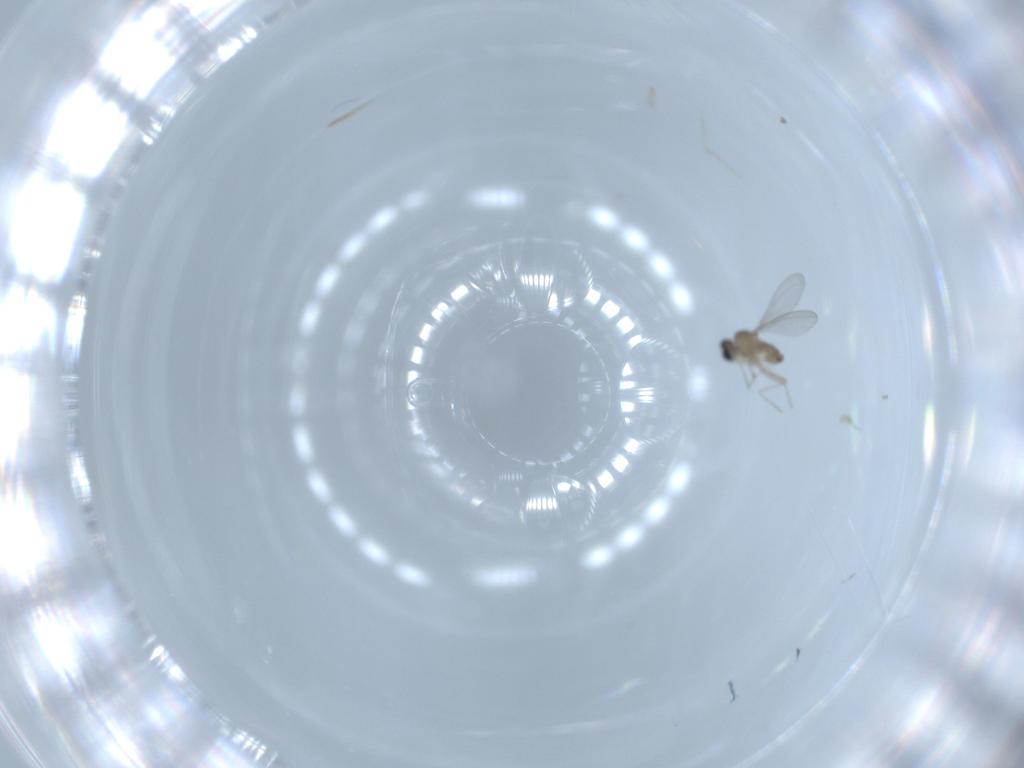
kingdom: Animalia
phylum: Arthropoda
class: Insecta
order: Diptera
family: Cecidomyiidae
